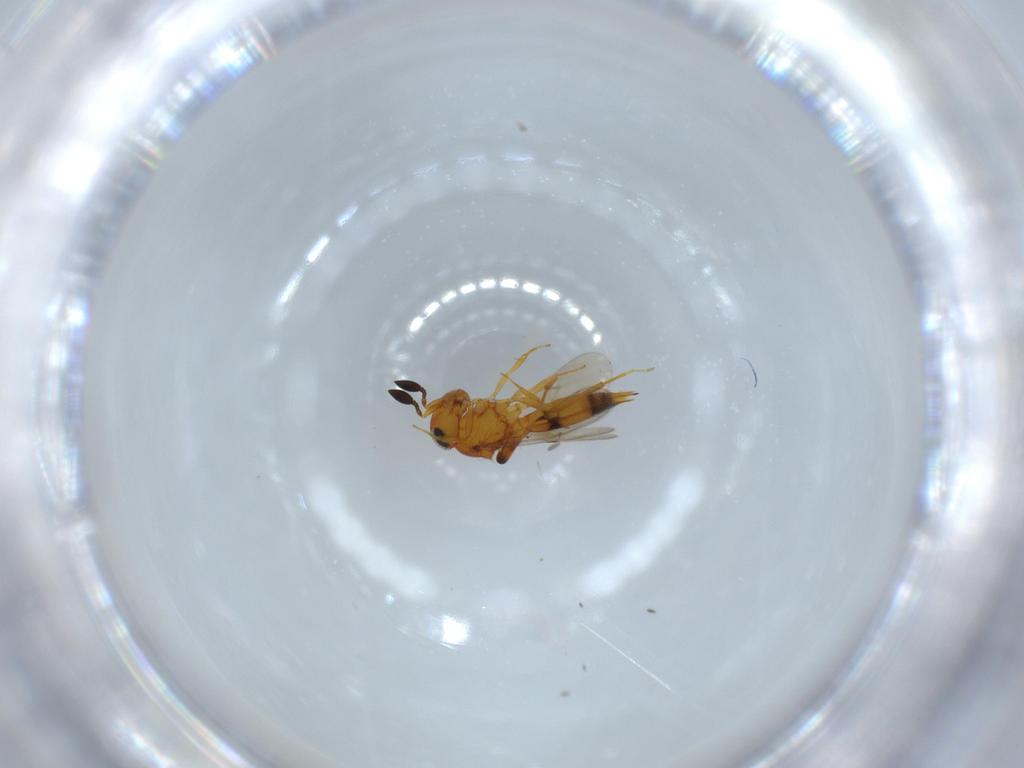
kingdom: Animalia
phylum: Arthropoda
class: Insecta
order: Hymenoptera
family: Scelionidae
